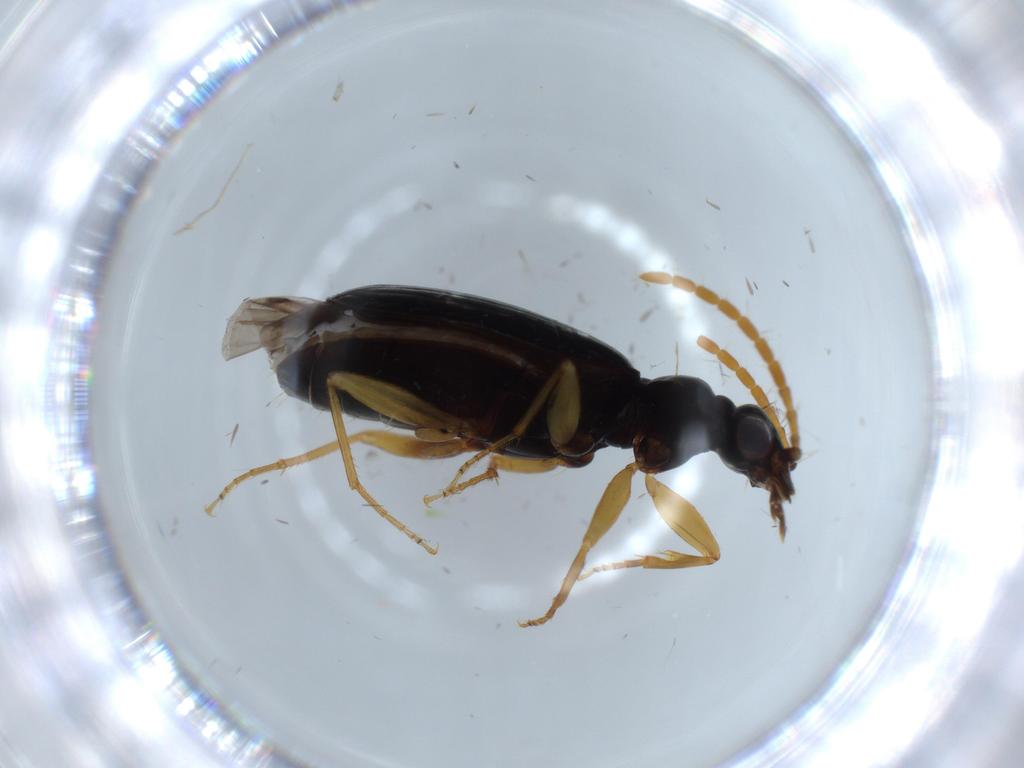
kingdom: Animalia
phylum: Arthropoda
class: Insecta
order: Coleoptera
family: Carabidae
